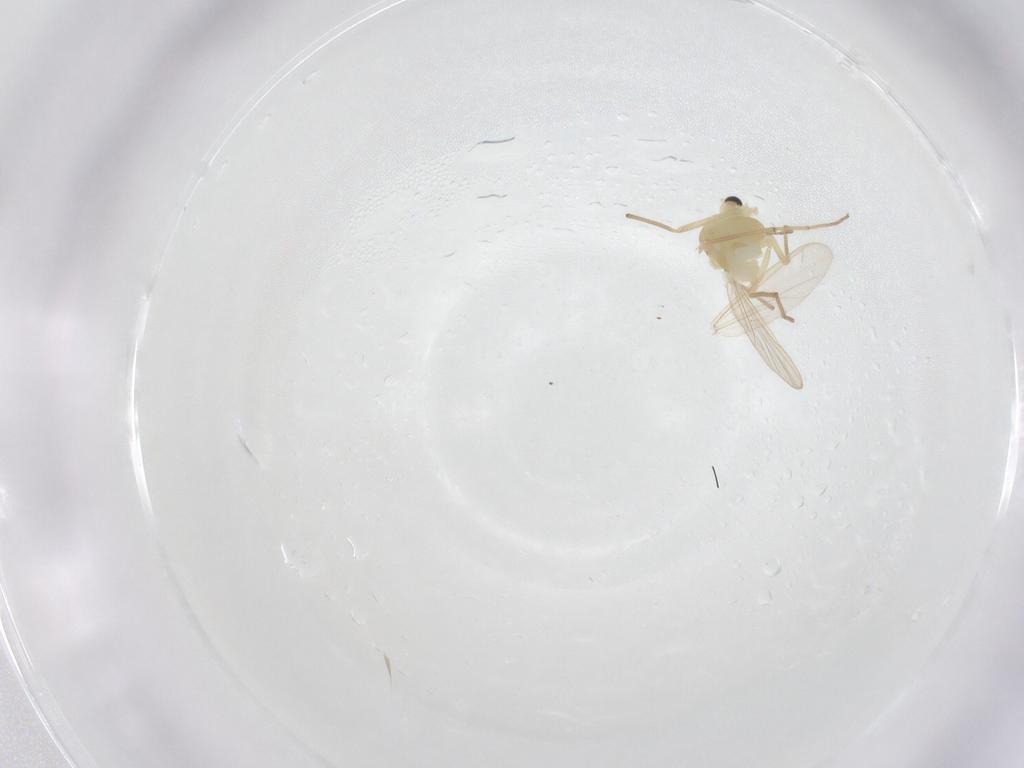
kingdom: Animalia
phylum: Arthropoda
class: Insecta
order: Diptera
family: Chironomidae
